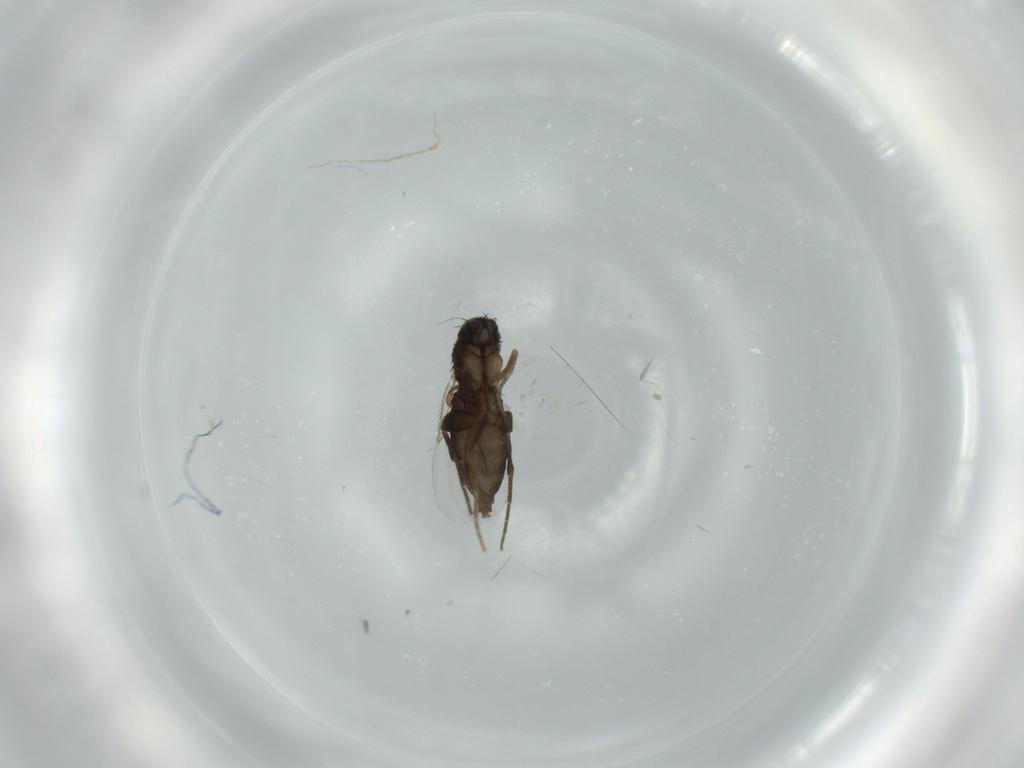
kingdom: Animalia
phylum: Arthropoda
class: Insecta
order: Diptera
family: Phoridae
